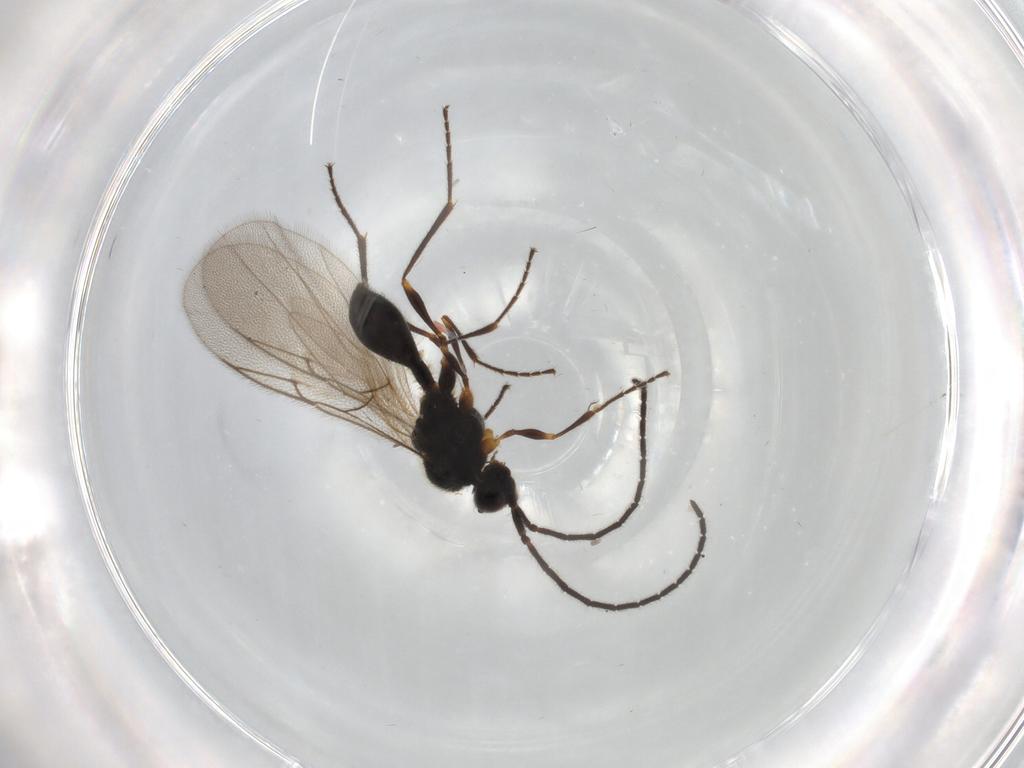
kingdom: Animalia
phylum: Arthropoda
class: Insecta
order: Hymenoptera
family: Diapriidae
